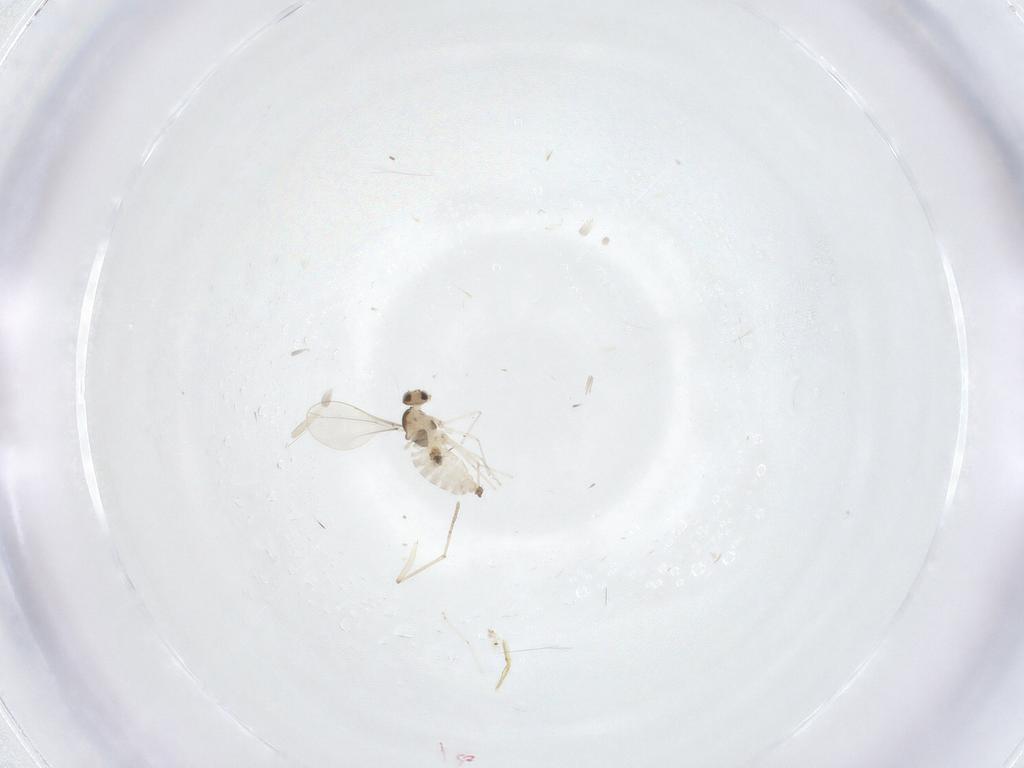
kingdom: Animalia
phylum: Arthropoda
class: Insecta
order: Diptera
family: Cecidomyiidae
